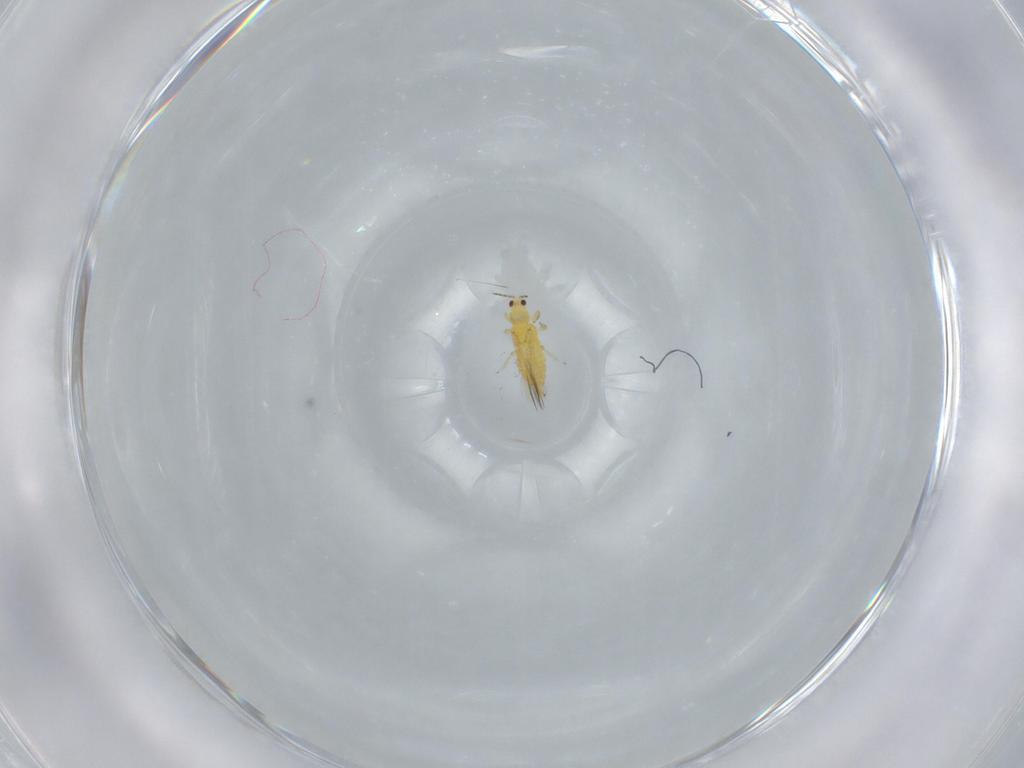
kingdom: Animalia
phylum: Arthropoda
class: Insecta
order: Thysanoptera
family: Thripidae
